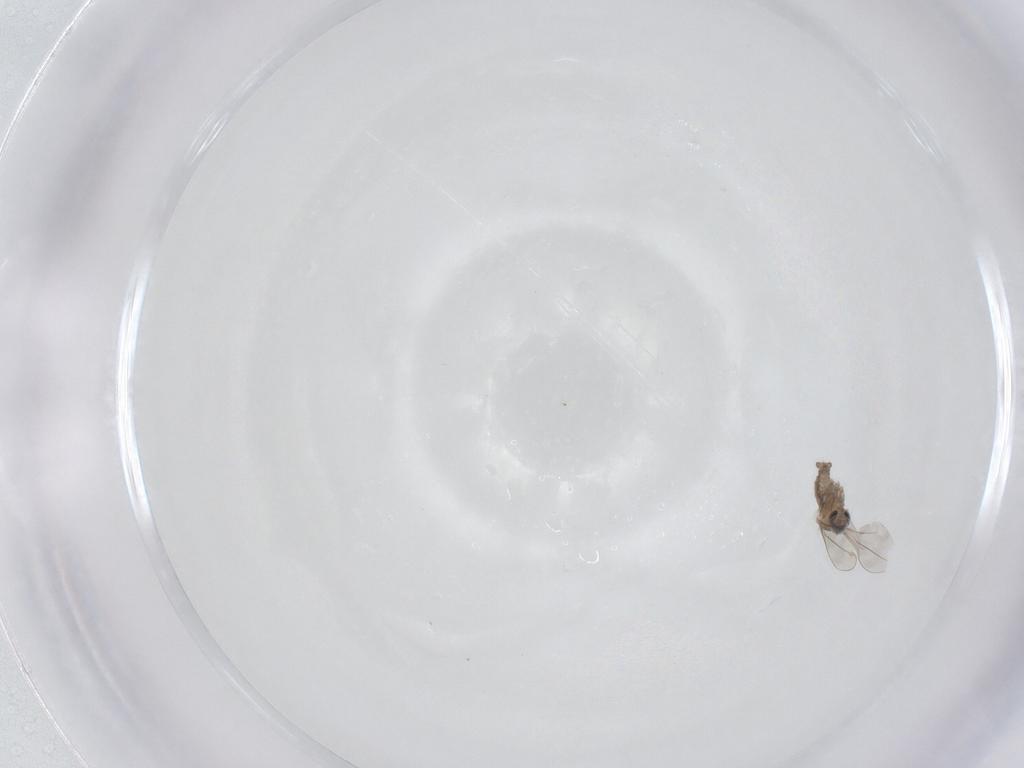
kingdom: Animalia
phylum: Arthropoda
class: Insecta
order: Diptera
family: Cecidomyiidae
